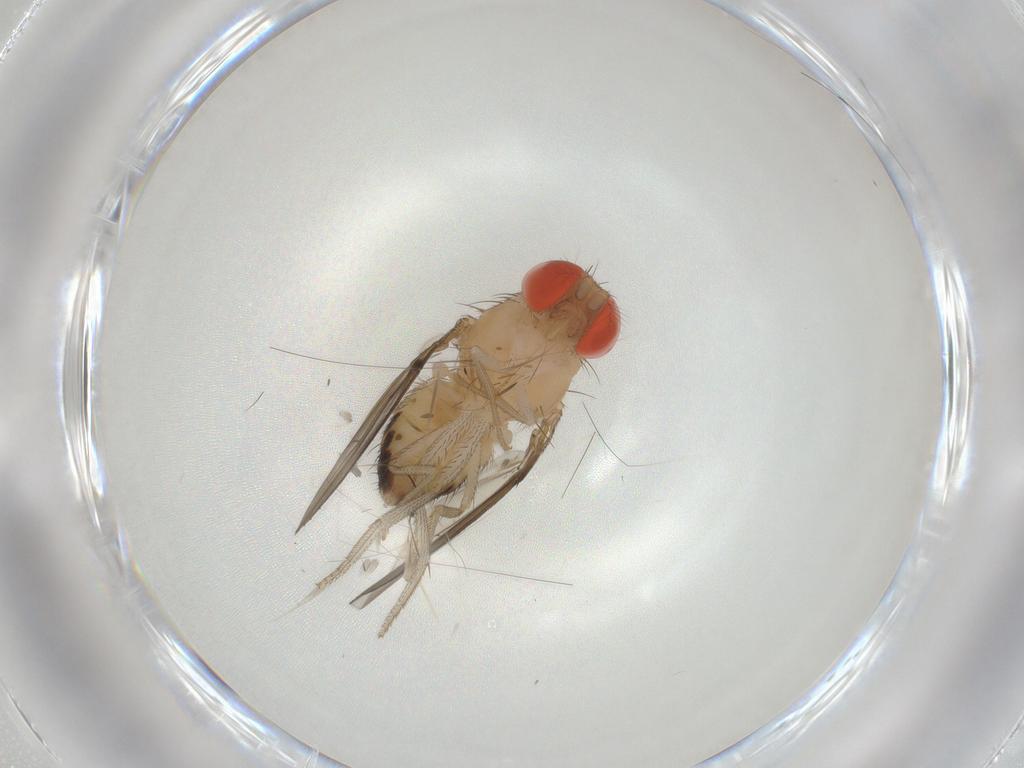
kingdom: Animalia
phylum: Arthropoda
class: Insecta
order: Diptera
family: Drosophilidae
